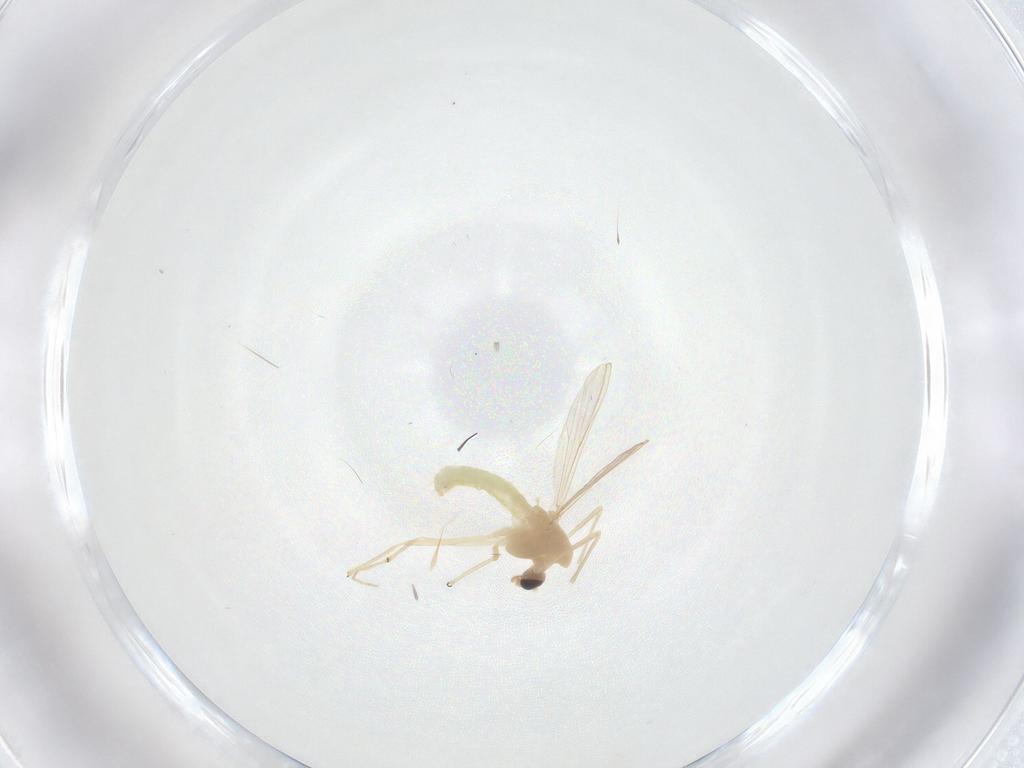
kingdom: Animalia
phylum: Arthropoda
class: Insecta
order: Diptera
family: Chironomidae
